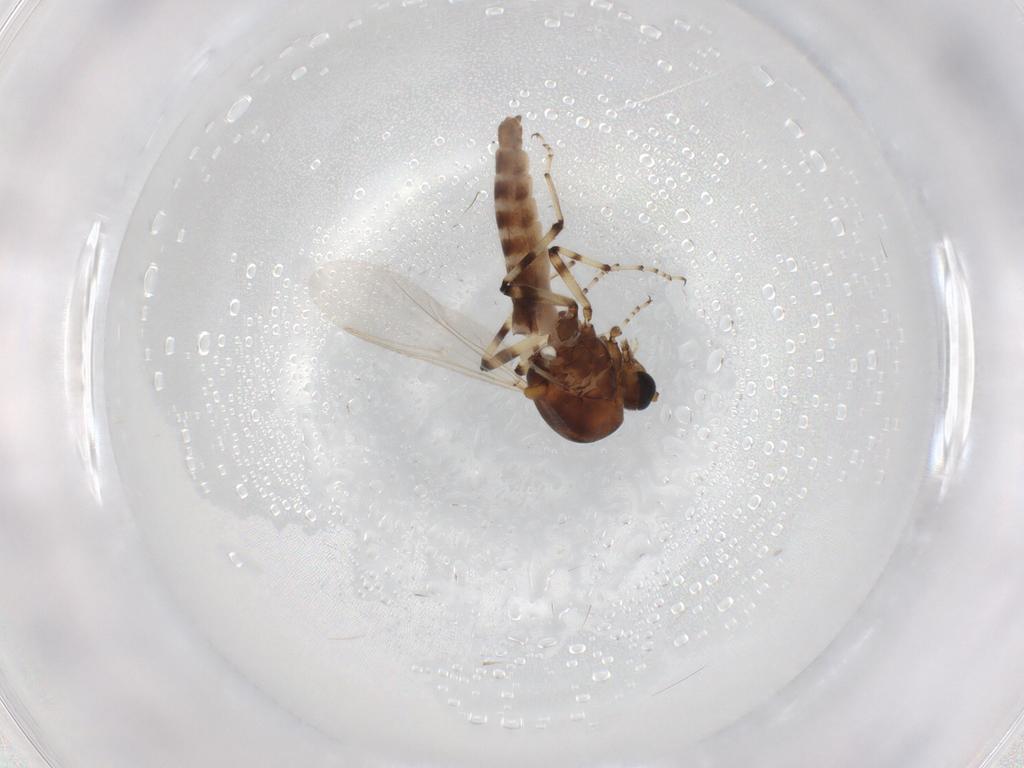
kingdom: Animalia
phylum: Arthropoda
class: Insecta
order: Diptera
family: Ceratopogonidae
